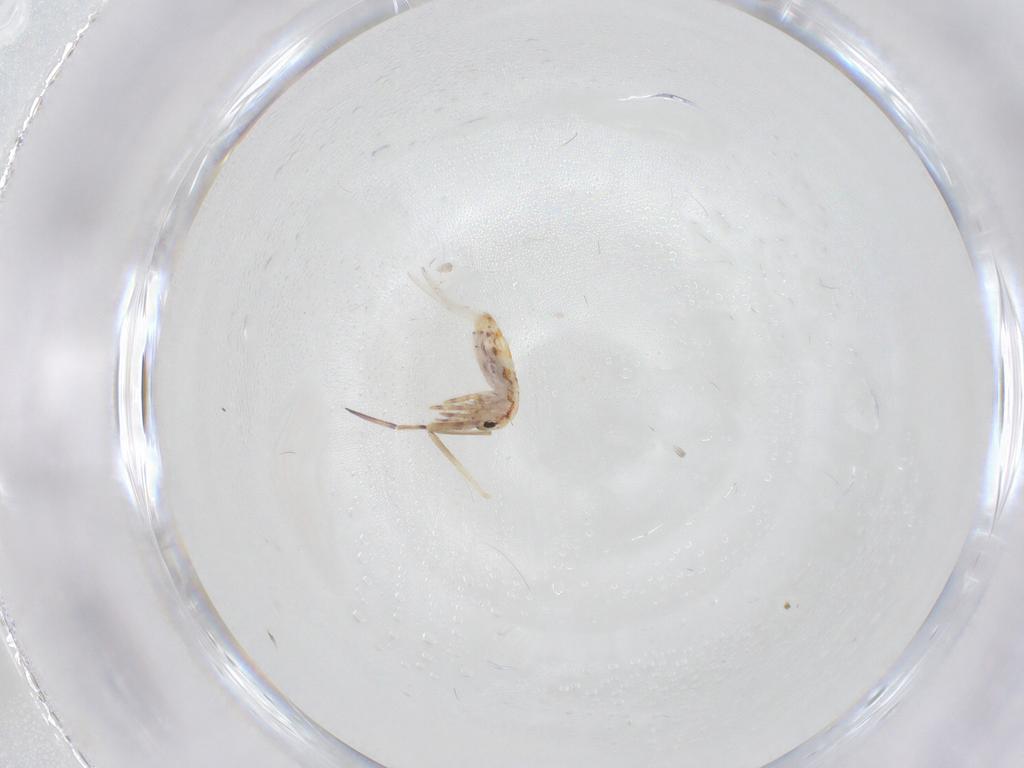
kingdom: Animalia
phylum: Arthropoda
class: Collembola
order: Entomobryomorpha
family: Entomobryidae
